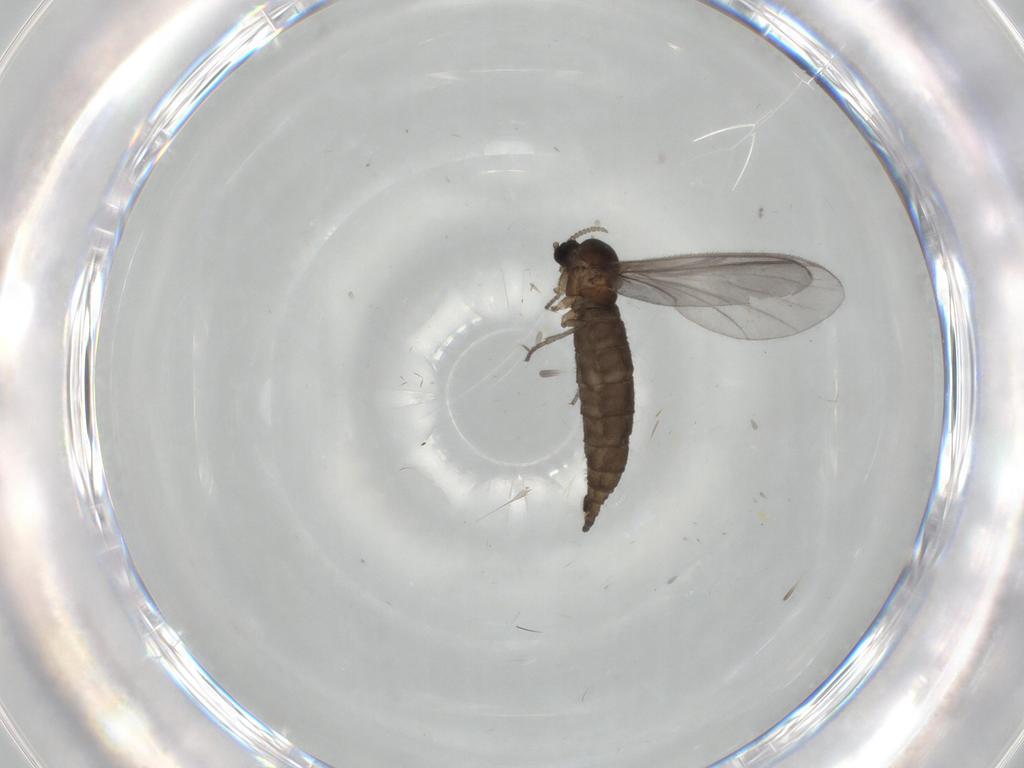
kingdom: Animalia
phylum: Arthropoda
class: Insecta
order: Diptera
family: Sciaridae
